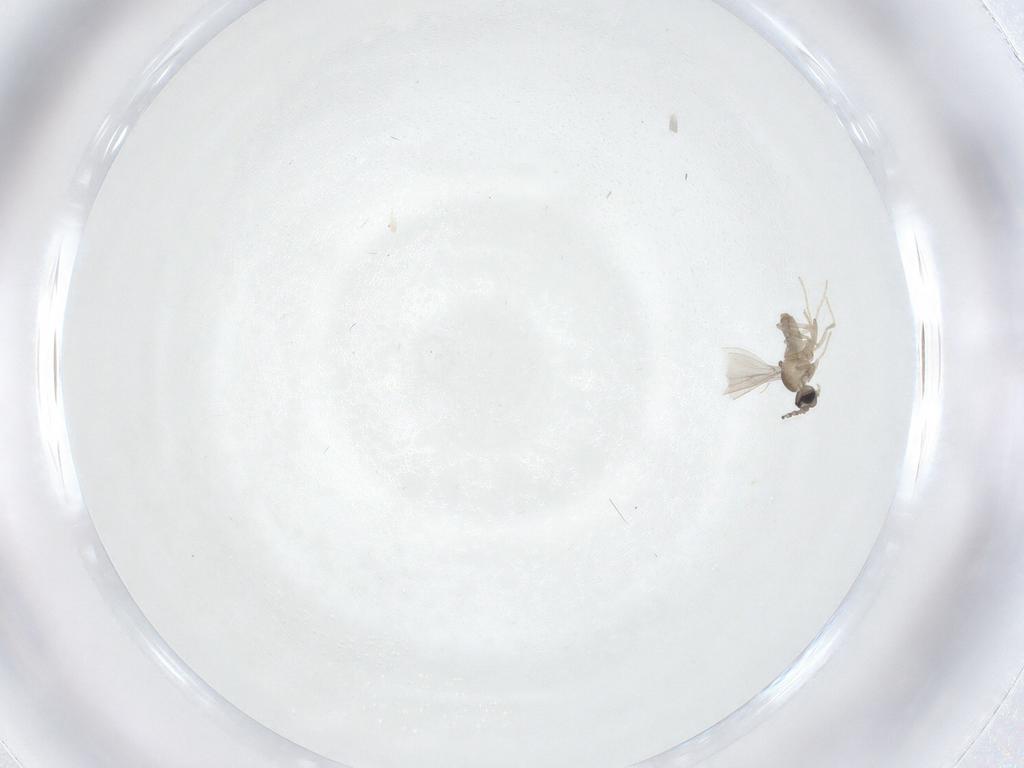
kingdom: Animalia
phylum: Arthropoda
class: Insecta
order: Diptera
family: Cecidomyiidae
